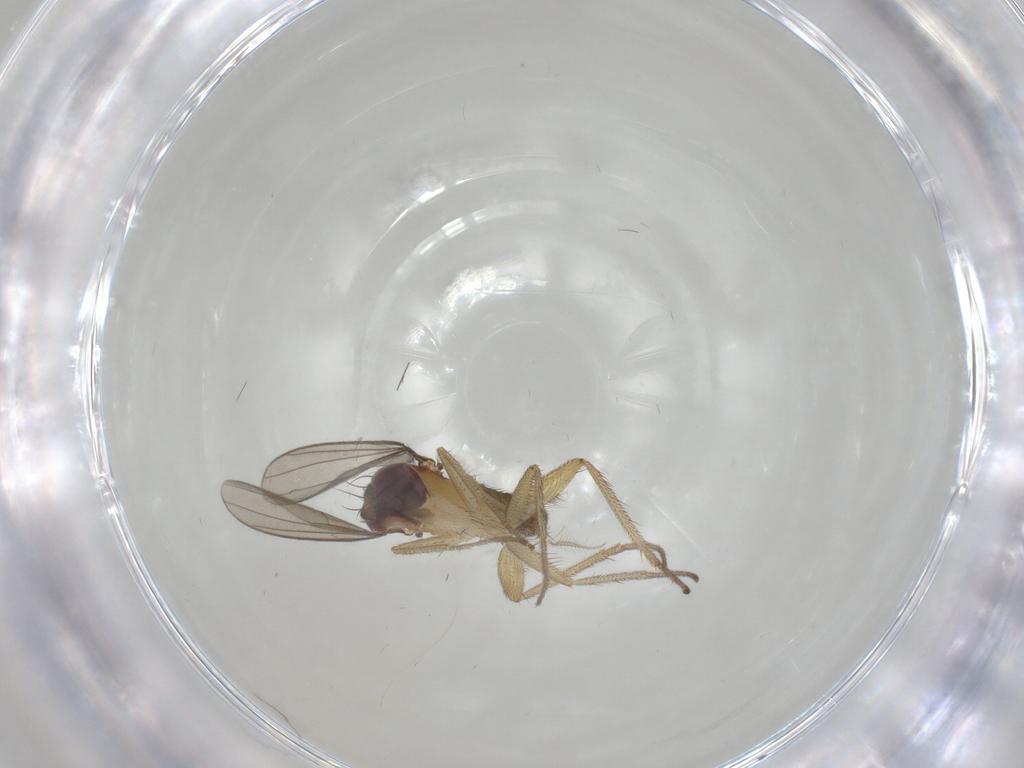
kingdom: Animalia
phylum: Arthropoda
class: Insecta
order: Diptera
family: Dolichopodidae
